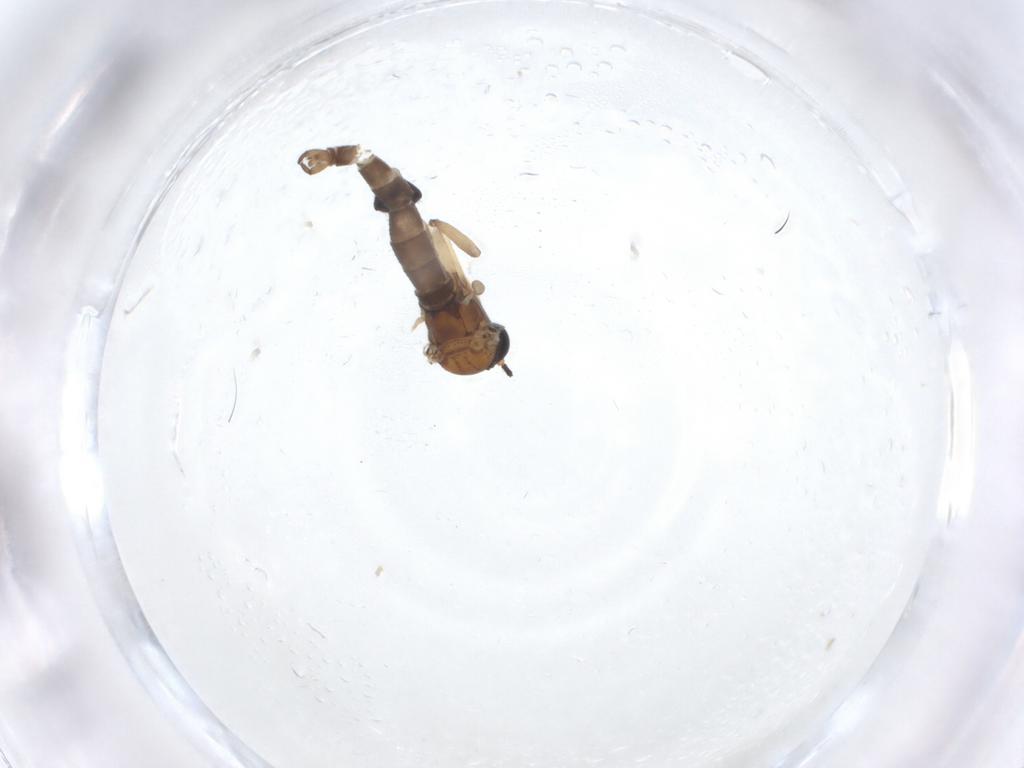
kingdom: Animalia
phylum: Arthropoda
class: Insecta
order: Diptera
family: Sciaridae
